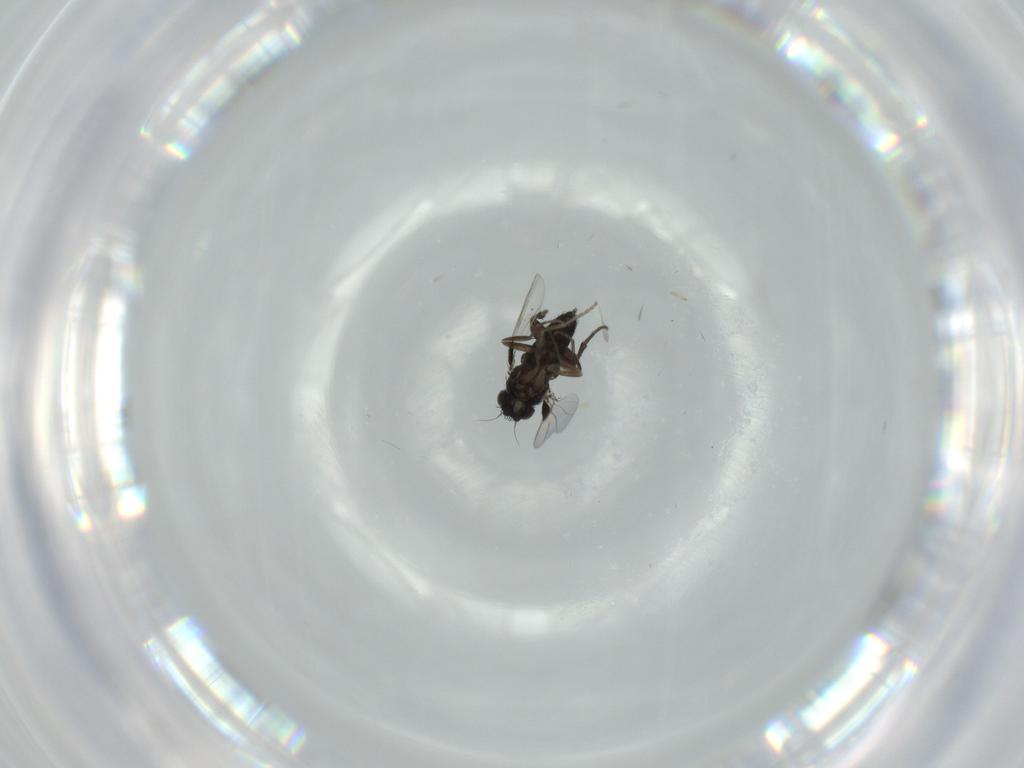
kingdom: Animalia
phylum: Arthropoda
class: Insecta
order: Diptera
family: Phoridae
